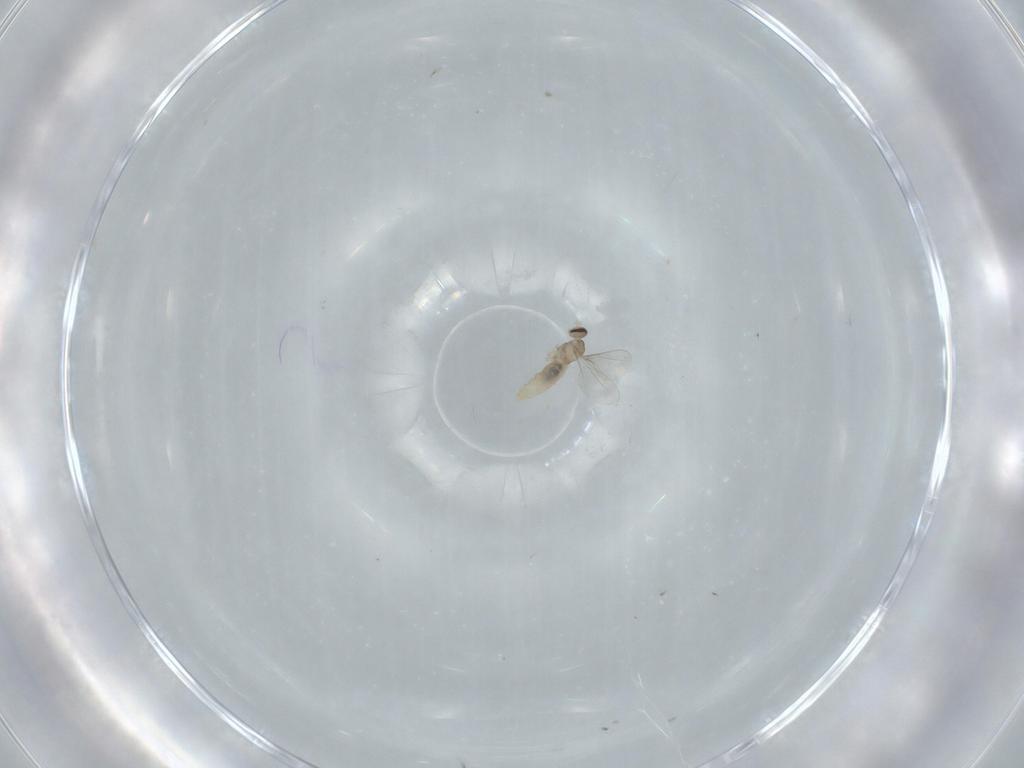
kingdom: Animalia
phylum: Arthropoda
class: Insecta
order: Diptera
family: Cecidomyiidae
